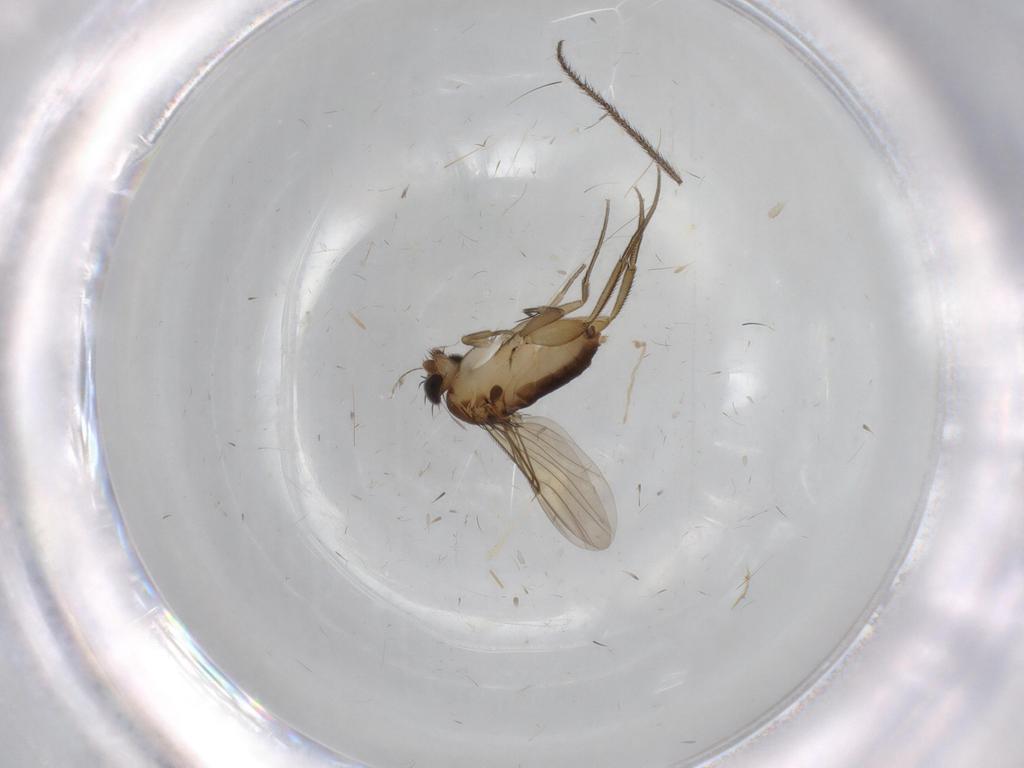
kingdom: Animalia
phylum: Arthropoda
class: Insecta
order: Diptera
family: Phoridae
